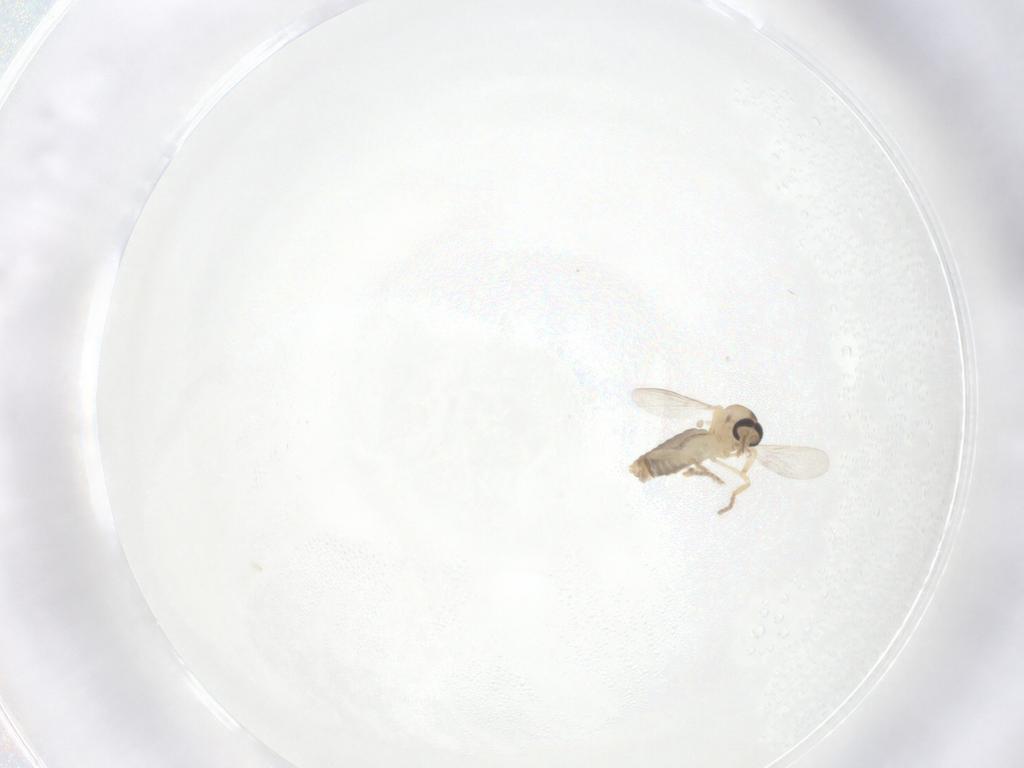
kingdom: Animalia
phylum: Arthropoda
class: Insecta
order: Diptera
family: Ceratopogonidae
